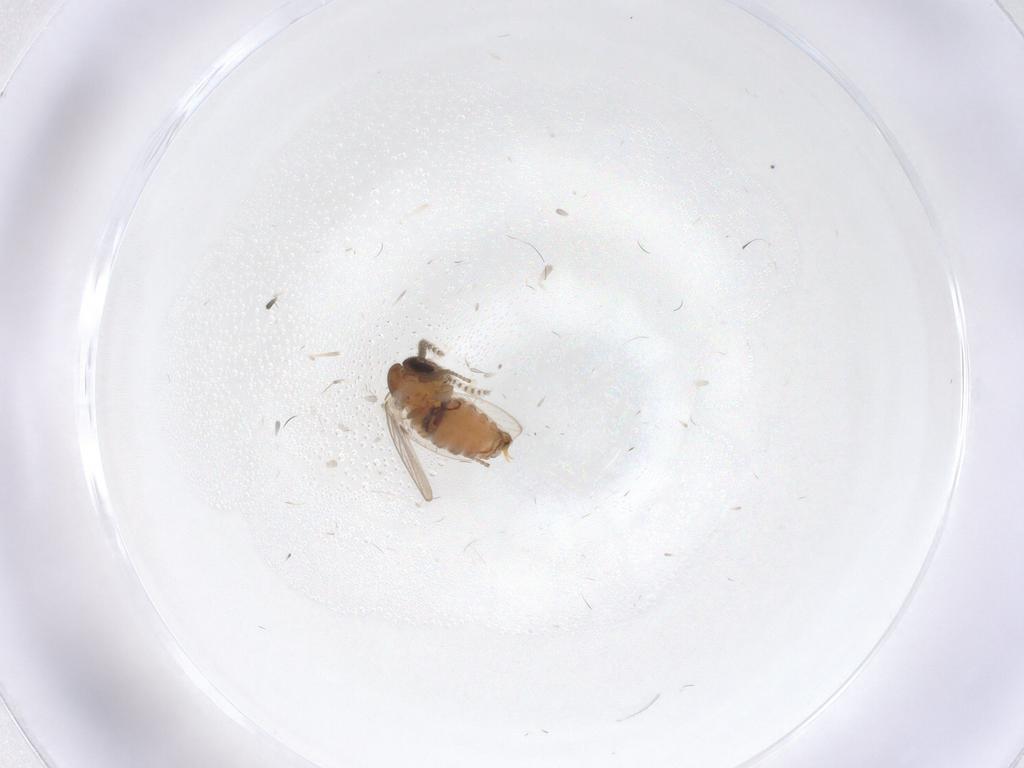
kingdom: Animalia
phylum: Arthropoda
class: Insecta
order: Diptera
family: Psychodidae
